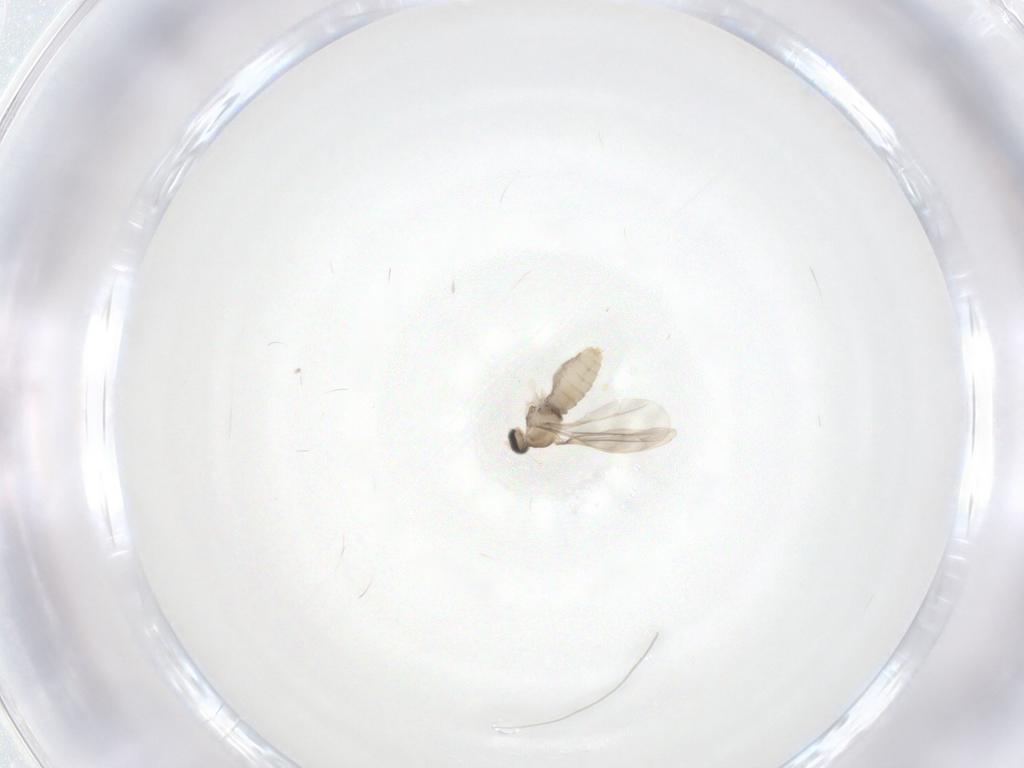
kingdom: Animalia
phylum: Arthropoda
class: Insecta
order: Diptera
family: Cecidomyiidae
